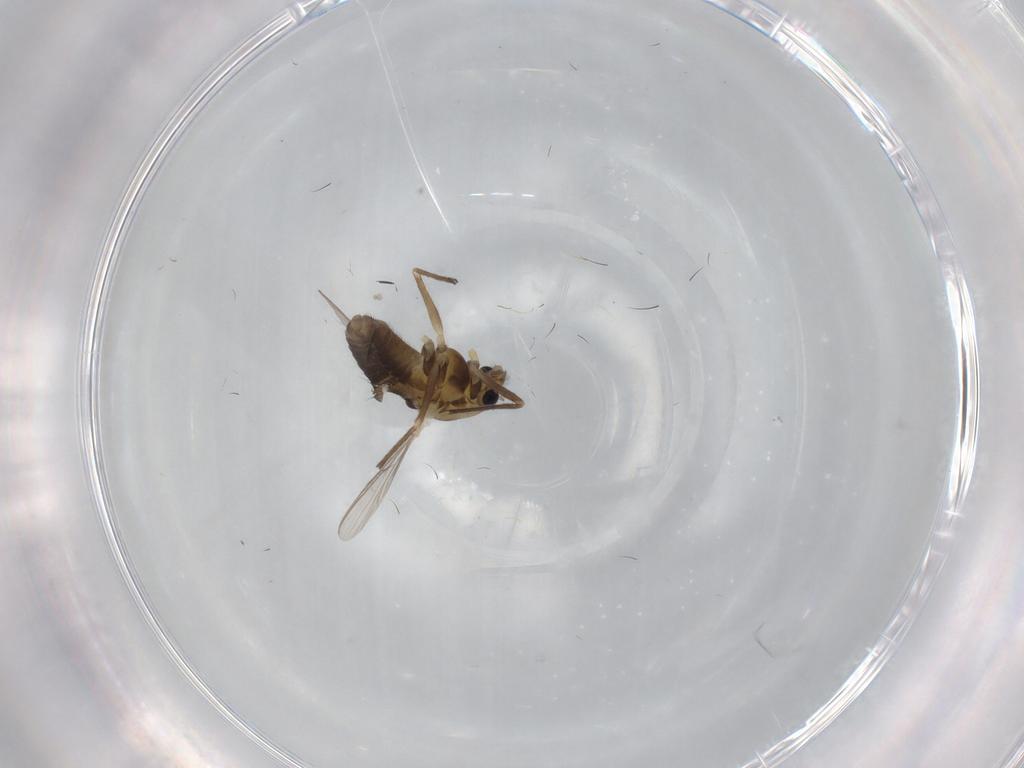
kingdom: Animalia
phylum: Arthropoda
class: Insecta
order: Diptera
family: Chironomidae
